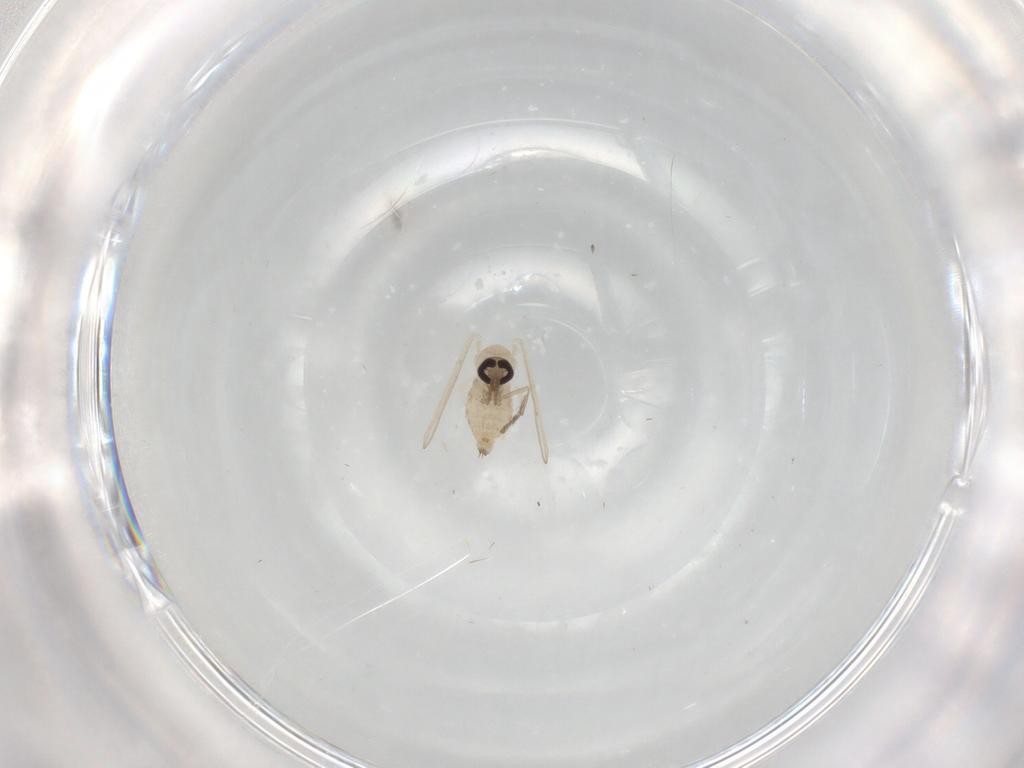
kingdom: Animalia
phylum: Arthropoda
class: Insecta
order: Diptera
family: Psychodidae
